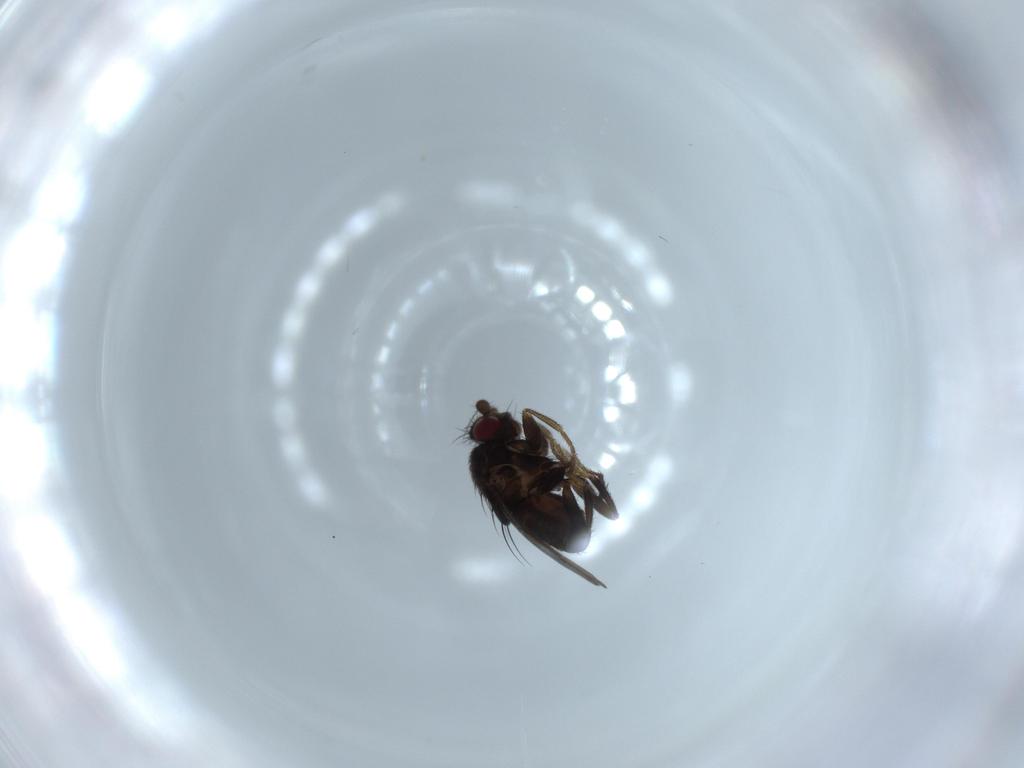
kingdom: Animalia
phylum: Arthropoda
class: Insecta
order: Diptera
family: Sphaeroceridae
